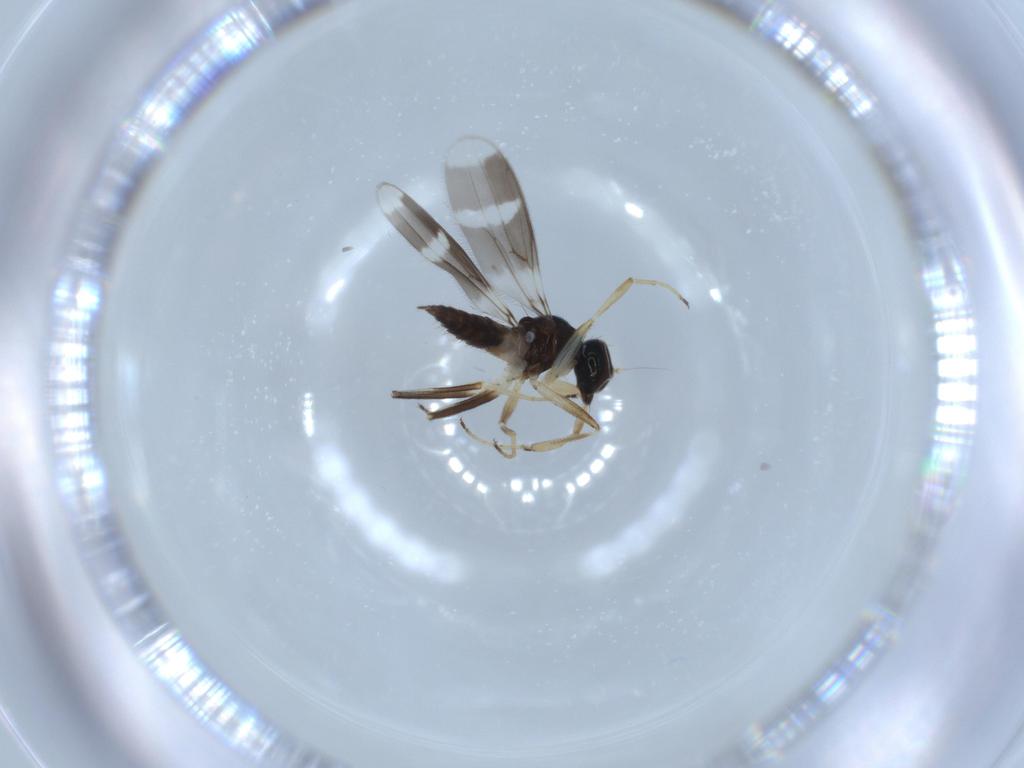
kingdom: Animalia
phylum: Arthropoda
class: Insecta
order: Diptera
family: Hybotidae
